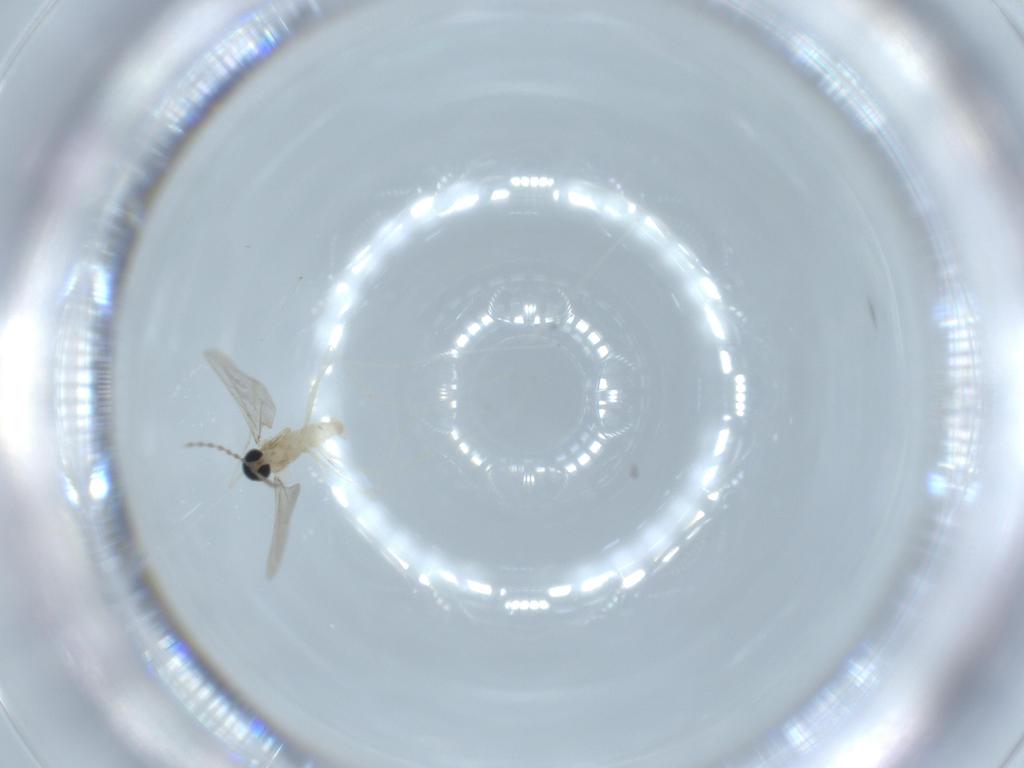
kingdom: Animalia
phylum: Arthropoda
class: Insecta
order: Diptera
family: Cecidomyiidae
